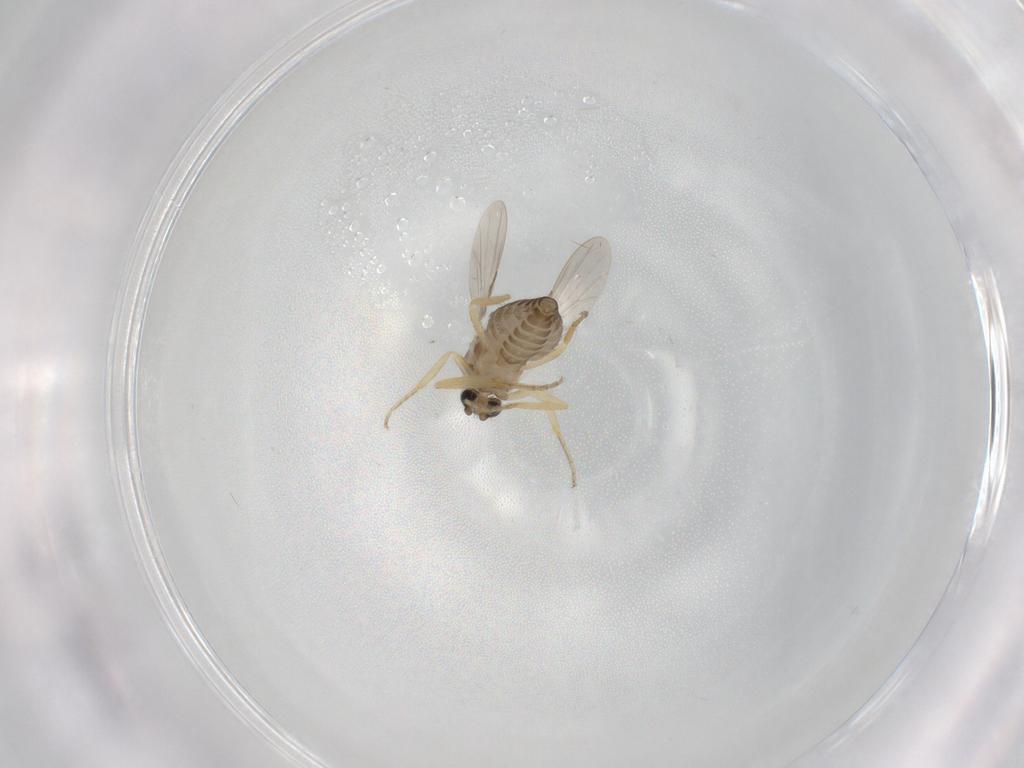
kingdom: Animalia
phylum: Arthropoda
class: Insecta
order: Diptera
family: Ceratopogonidae
